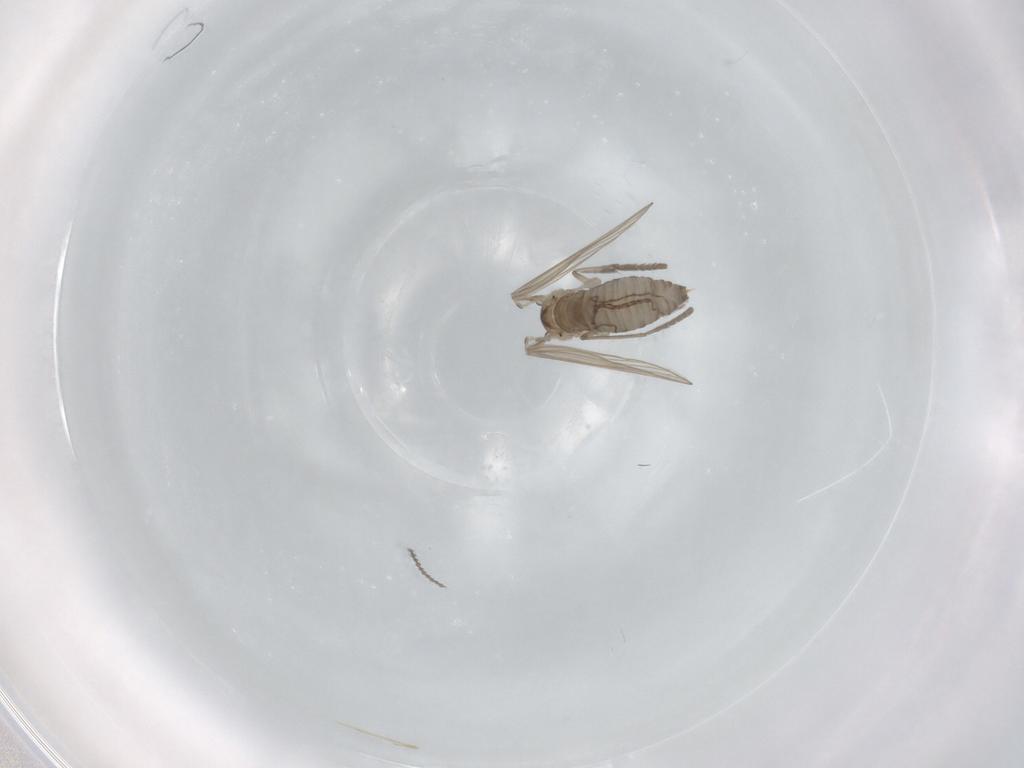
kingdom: Animalia
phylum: Arthropoda
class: Insecta
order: Diptera
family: Psychodidae
